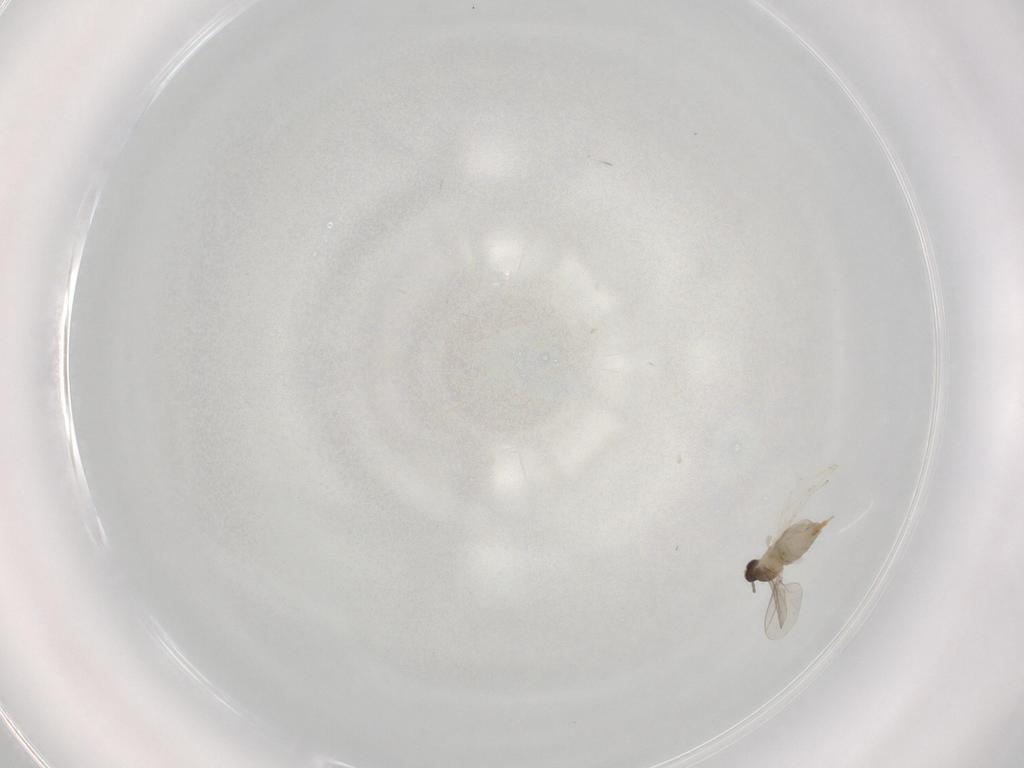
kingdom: Animalia
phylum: Arthropoda
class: Insecta
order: Diptera
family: Cecidomyiidae
